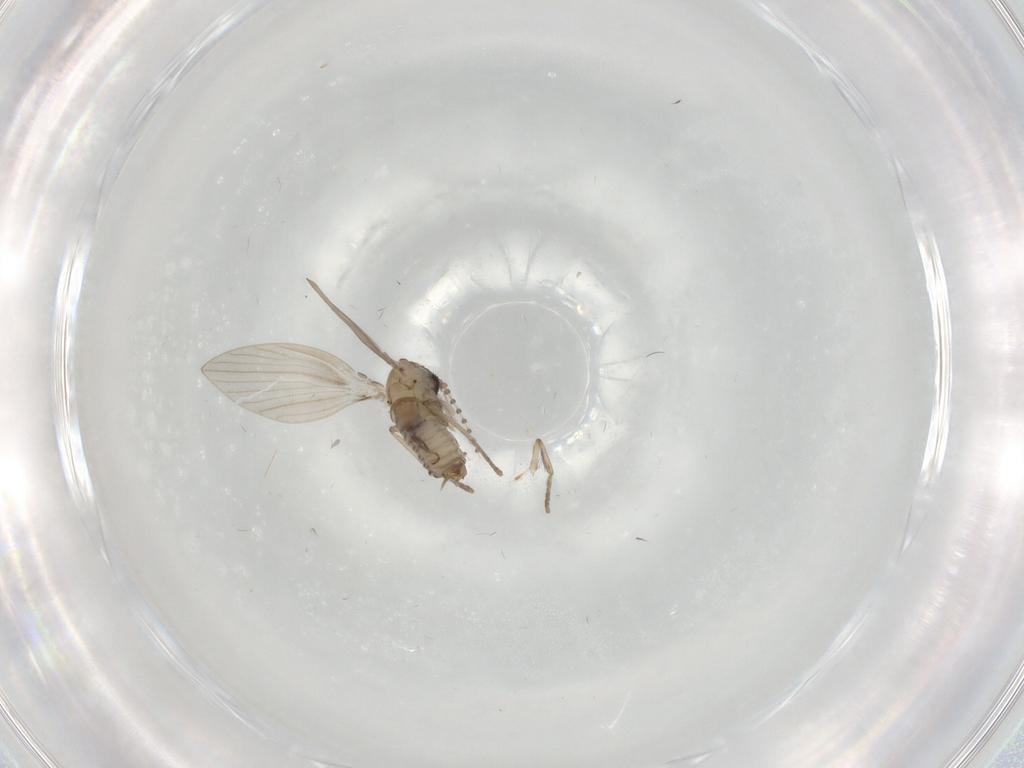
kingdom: Animalia
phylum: Arthropoda
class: Insecta
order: Diptera
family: Psychodidae
